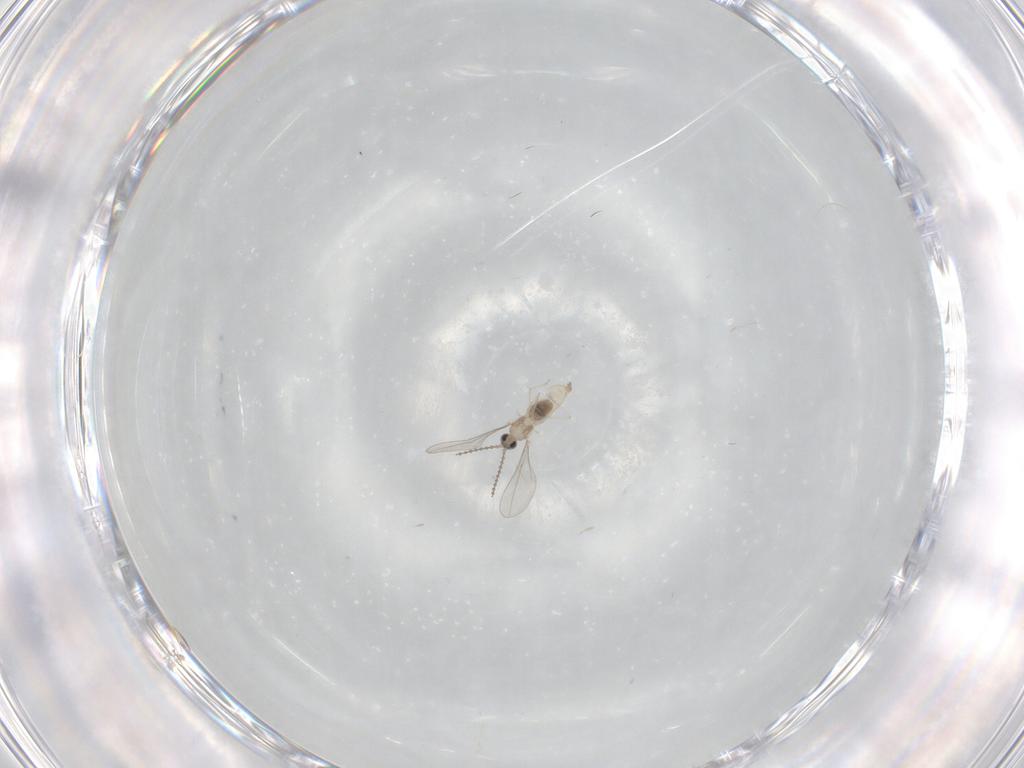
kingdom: Animalia
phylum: Arthropoda
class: Insecta
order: Diptera
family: Cecidomyiidae
